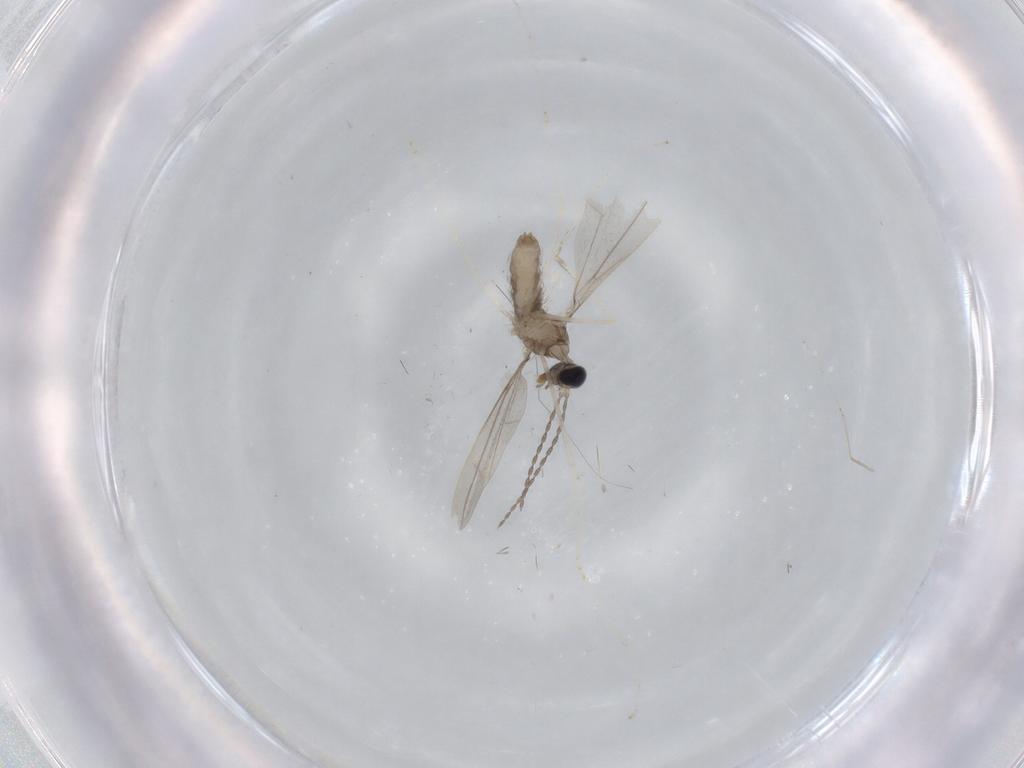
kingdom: Animalia
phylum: Arthropoda
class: Insecta
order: Diptera
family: Cecidomyiidae
